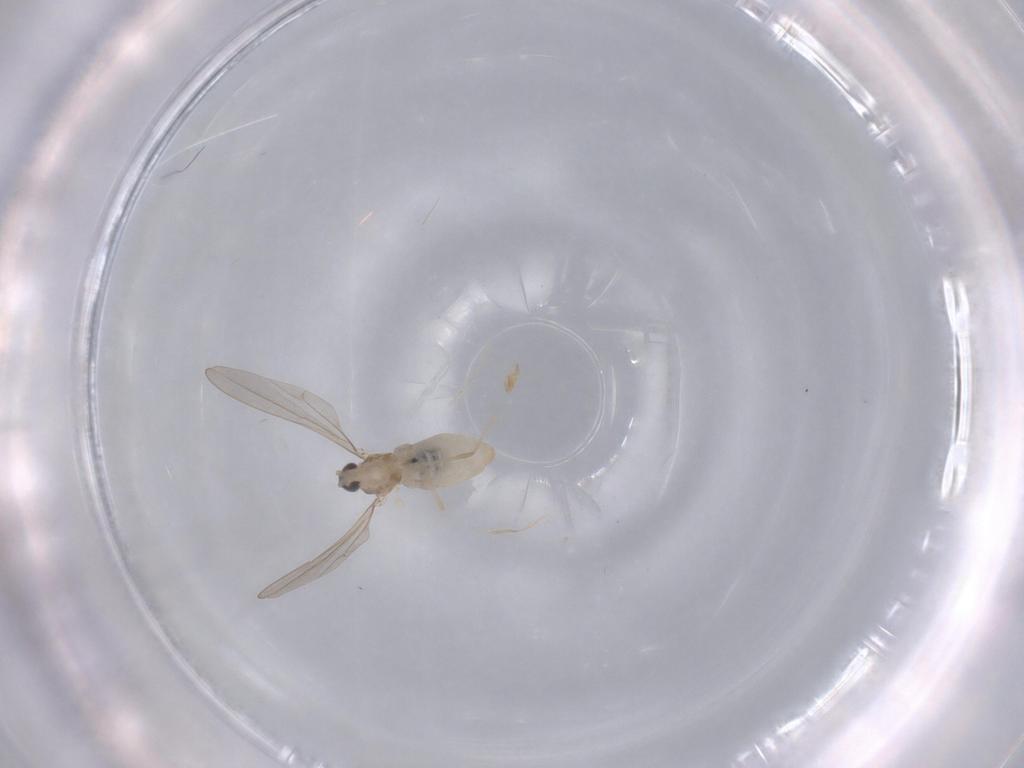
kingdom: Animalia
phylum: Arthropoda
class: Insecta
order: Diptera
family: Cecidomyiidae
